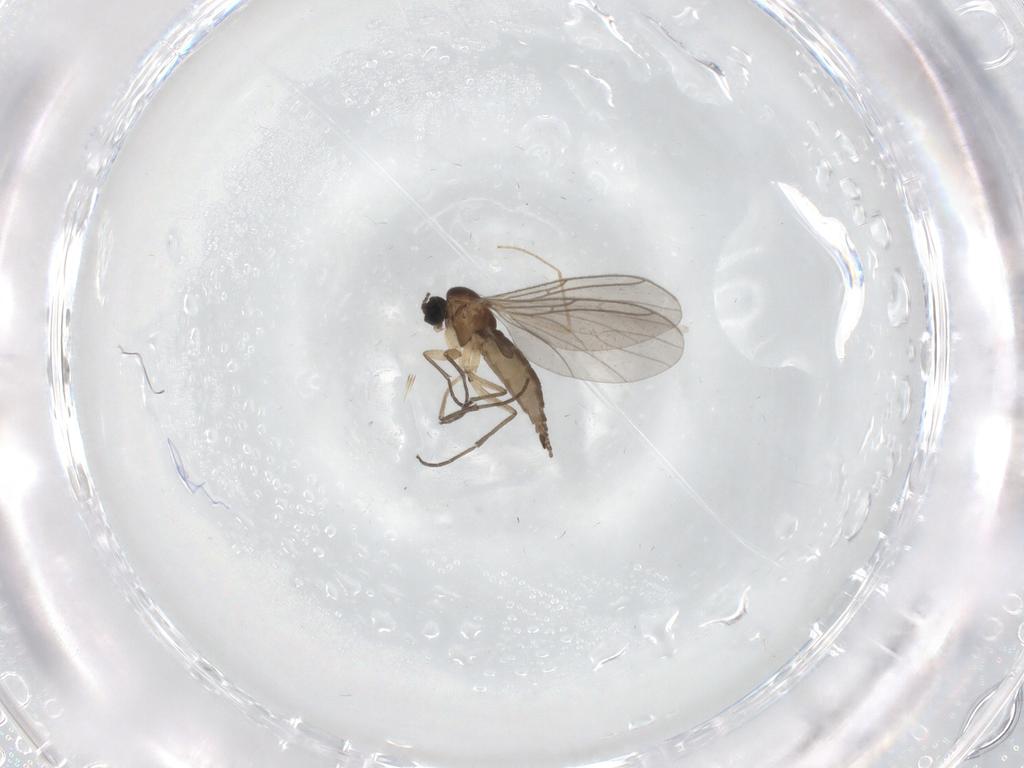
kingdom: Animalia
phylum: Arthropoda
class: Insecta
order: Diptera
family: Sciaridae
